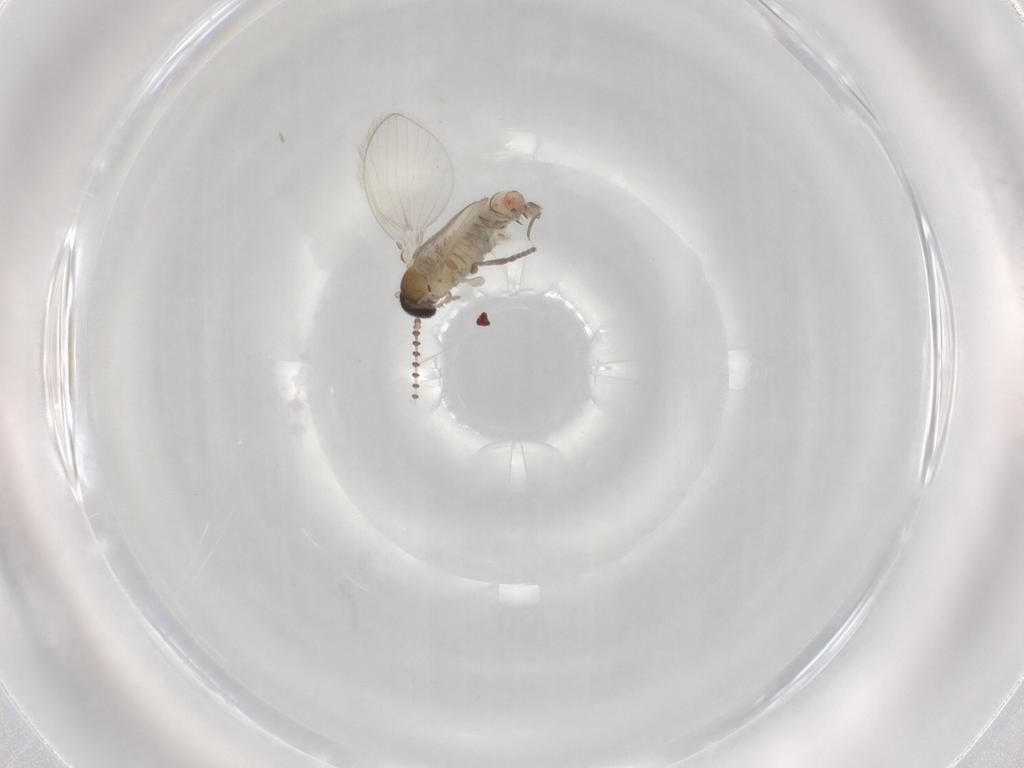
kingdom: Animalia
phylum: Arthropoda
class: Insecta
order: Diptera
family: Psychodidae
